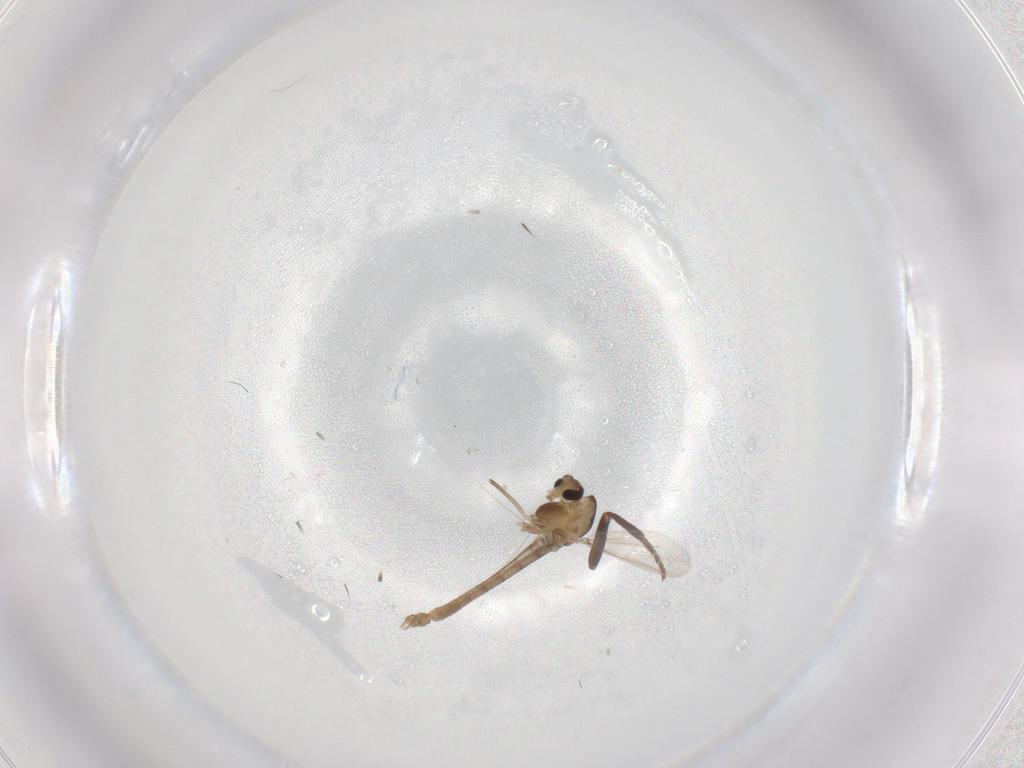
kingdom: Animalia
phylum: Arthropoda
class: Insecta
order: Diptera
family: Chironomidae
